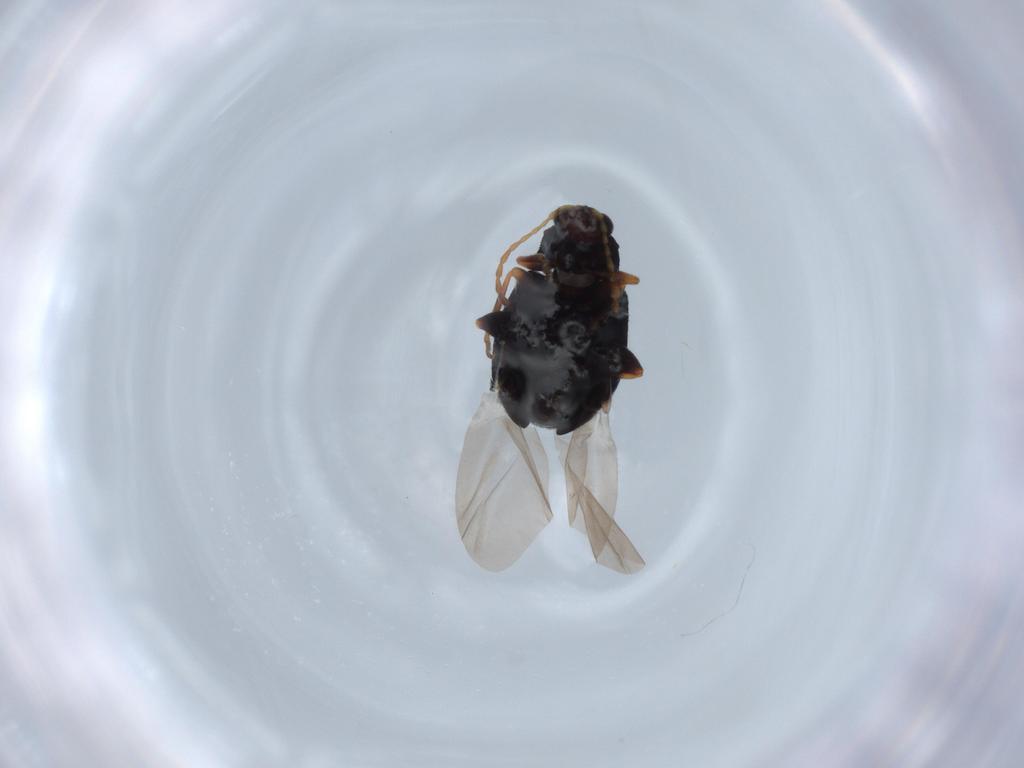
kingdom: Animalia
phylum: Arthropoda
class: Insecta
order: Coleoptera
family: Chrysomelidae
